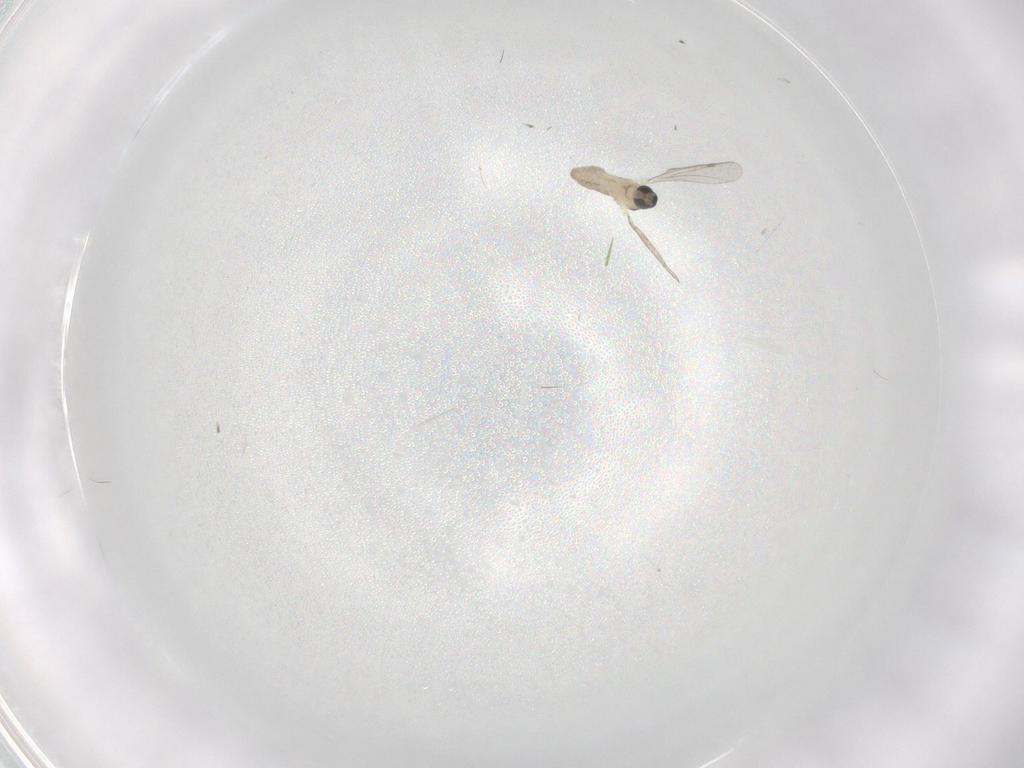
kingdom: Animalia
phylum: Arthropoda
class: Insecta
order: Diptera
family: Cecidomyiidae
